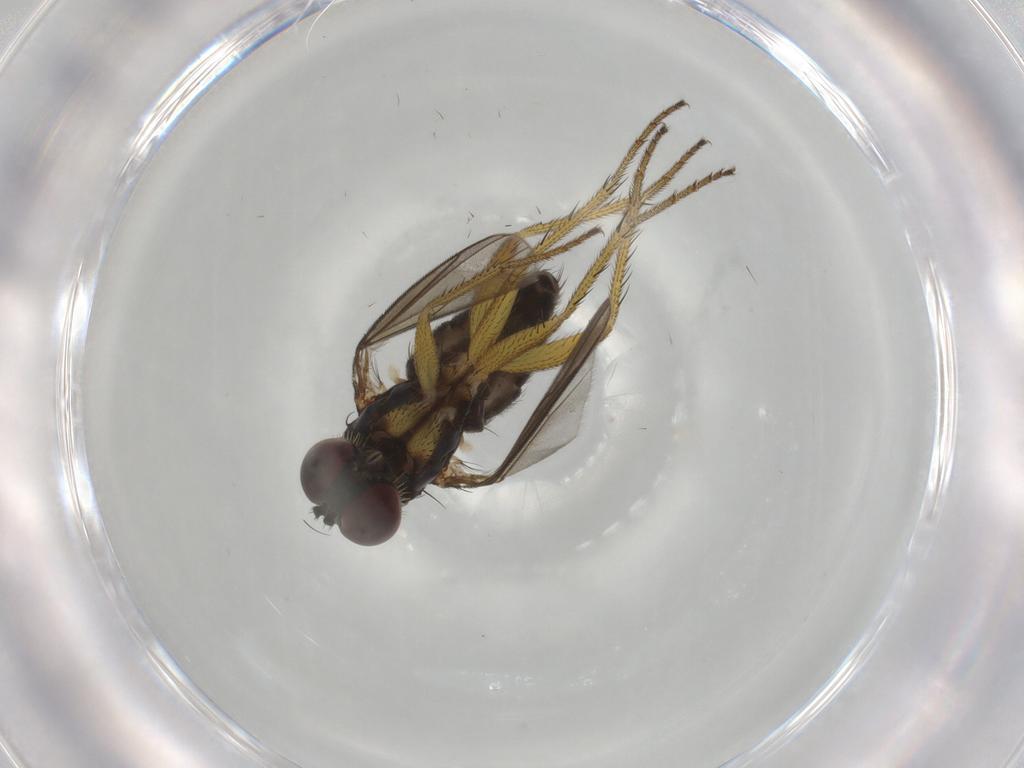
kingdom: Animalia
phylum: Arthropoda
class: Insecta
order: Diptera
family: Dolichopodidae
